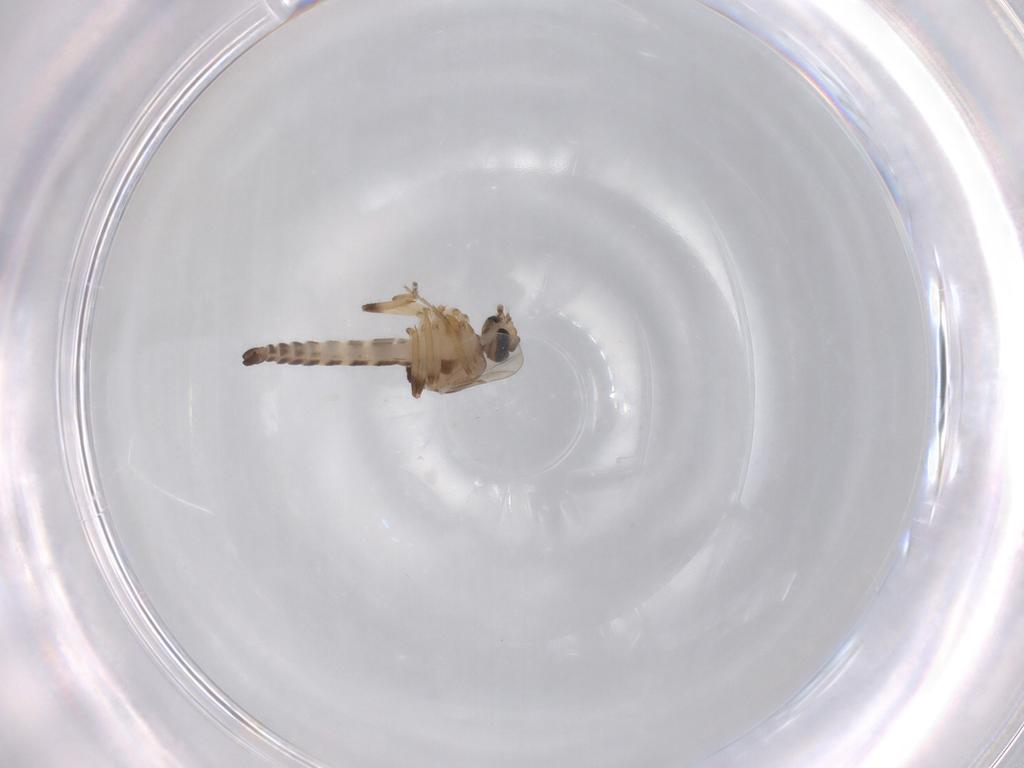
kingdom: Animalia
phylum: Arthropoda
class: Insecta
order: Diptera
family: Ceratopogonidae
